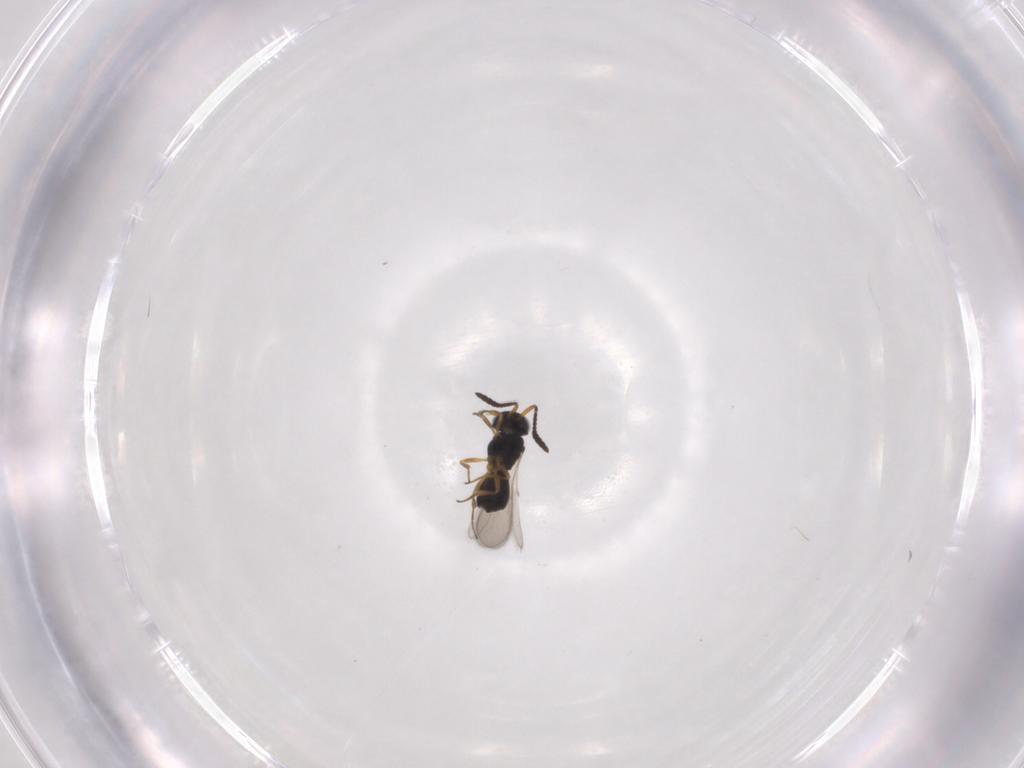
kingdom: Animalia
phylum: Arthropoda
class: Insecta
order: Hymenoptera
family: Scelionidae
